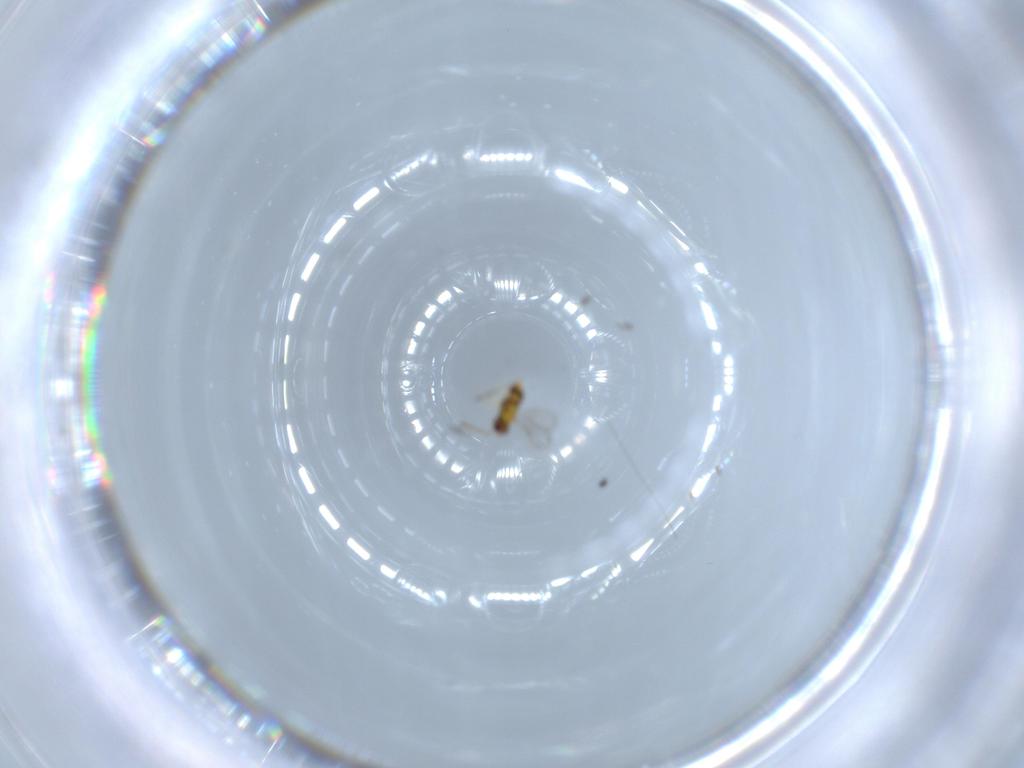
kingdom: Animalia
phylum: Arthropoda
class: Insecta
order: Hymenoptera
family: Aphelinidae
